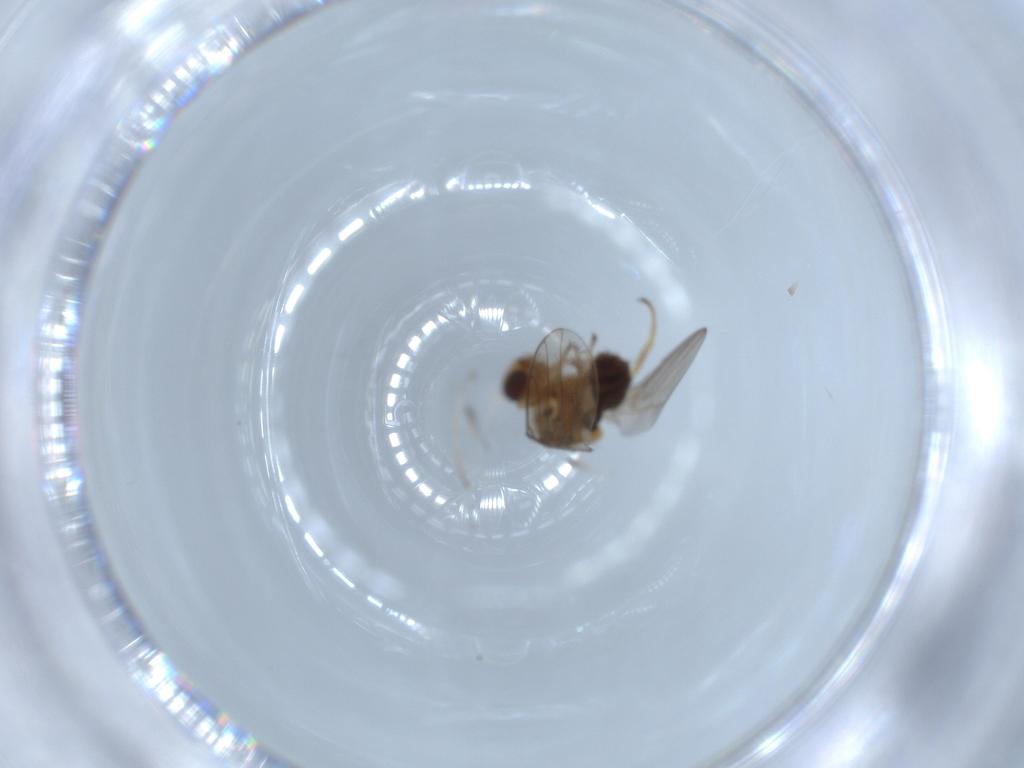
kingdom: Animalia
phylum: Arthropoda
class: Insecta
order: Diptera
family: Chloropidae
